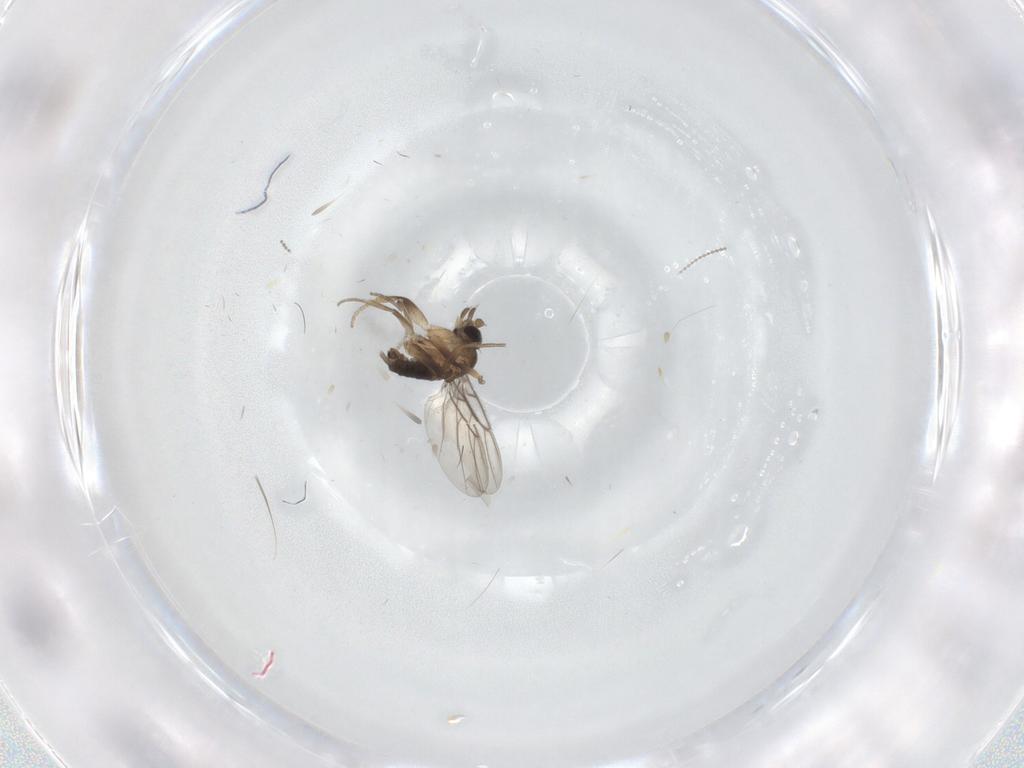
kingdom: Animalia
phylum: Arthropoda
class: Insecta
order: Diptera
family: Phoridae
